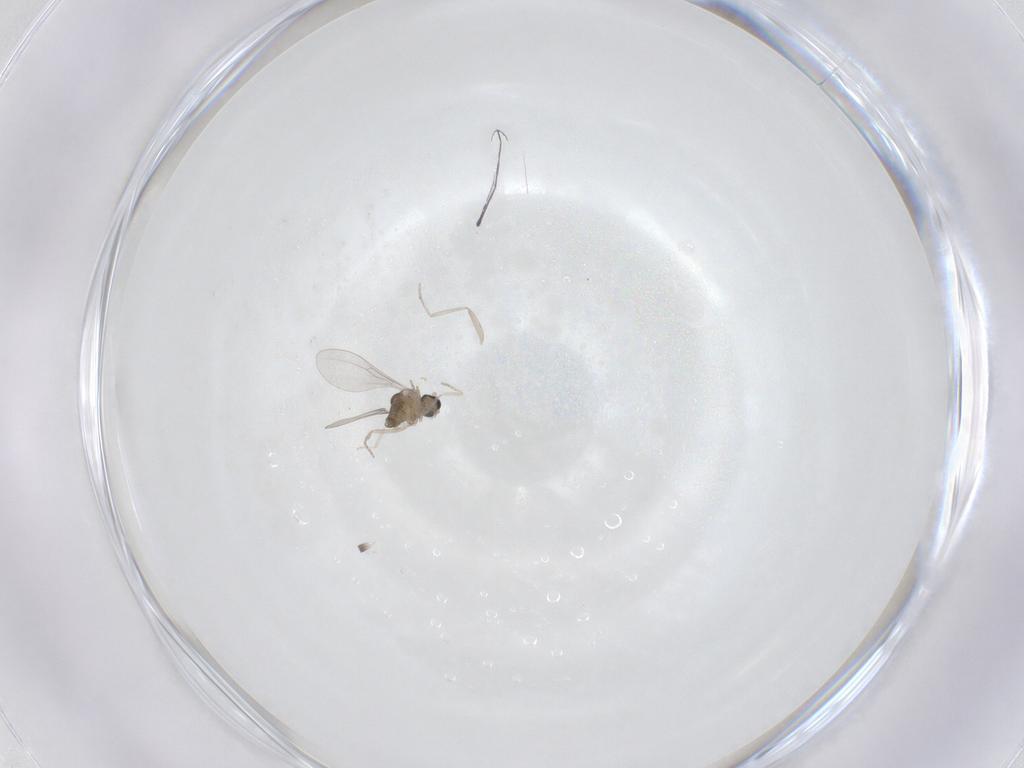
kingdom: Animalia
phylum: Arthropoda
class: Insecta
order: Diptera
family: Cecidomyiidae
